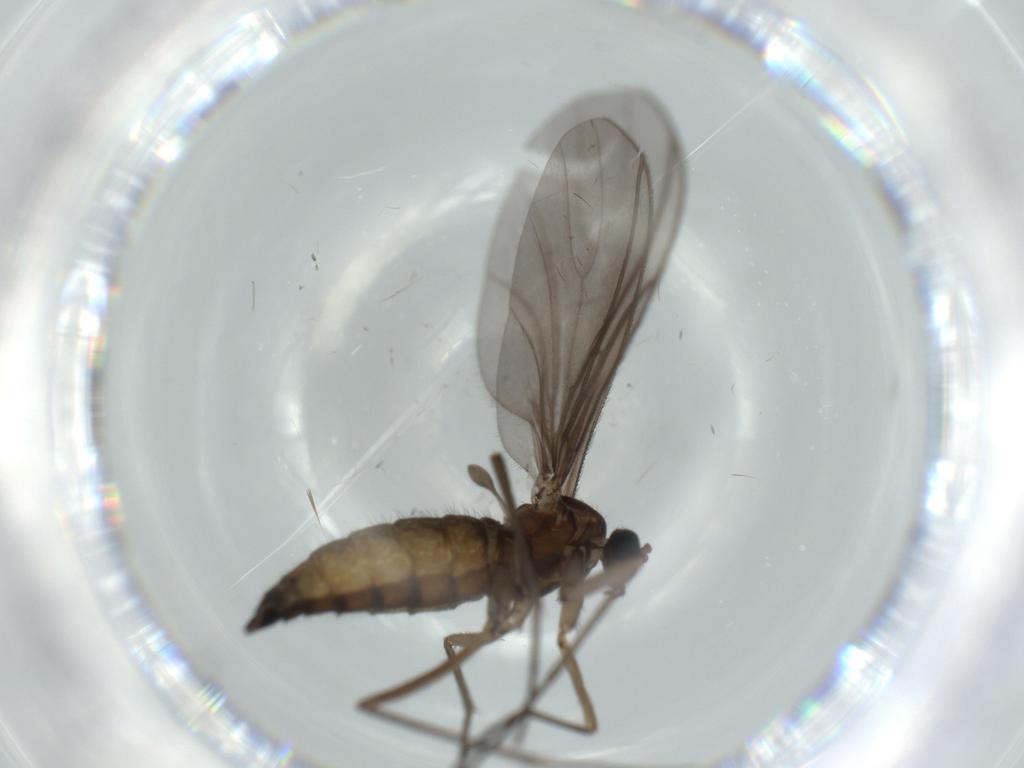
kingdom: Animalia
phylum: Arthropoda
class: Insecta
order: Diptera
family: Sciaridae
